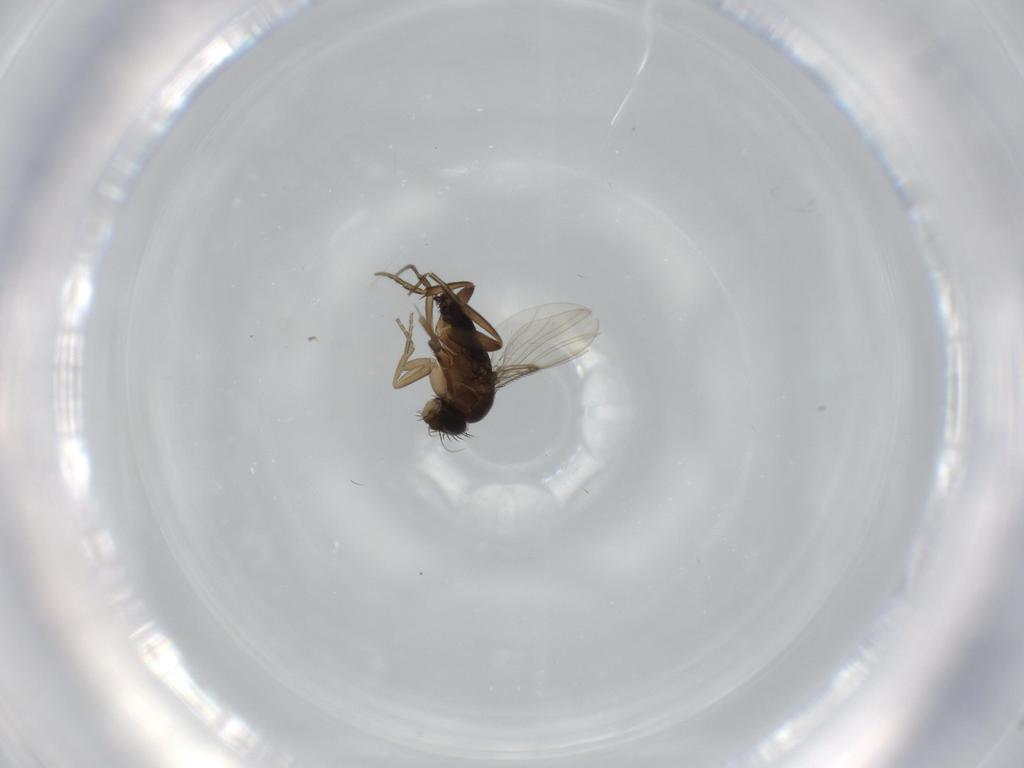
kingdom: Animalia
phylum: Arthropoda
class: Insecta
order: Diptera
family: Phoridae
